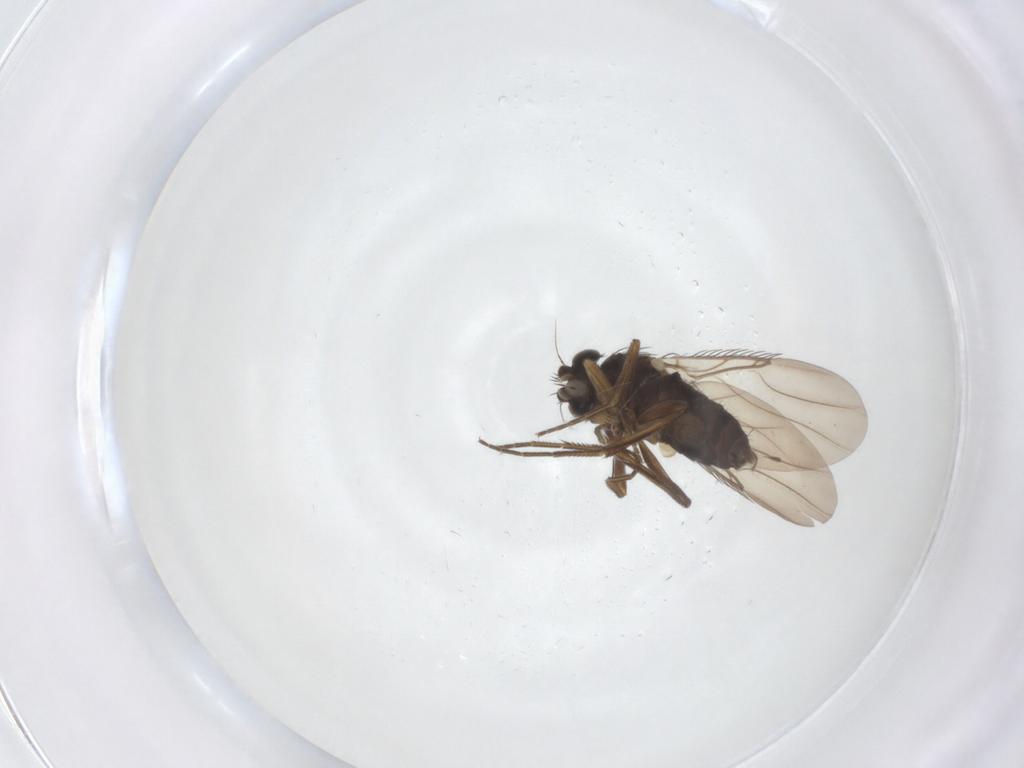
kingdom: Animalia
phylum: Arthropoda
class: Insecta
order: Diptera
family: Phoridae
